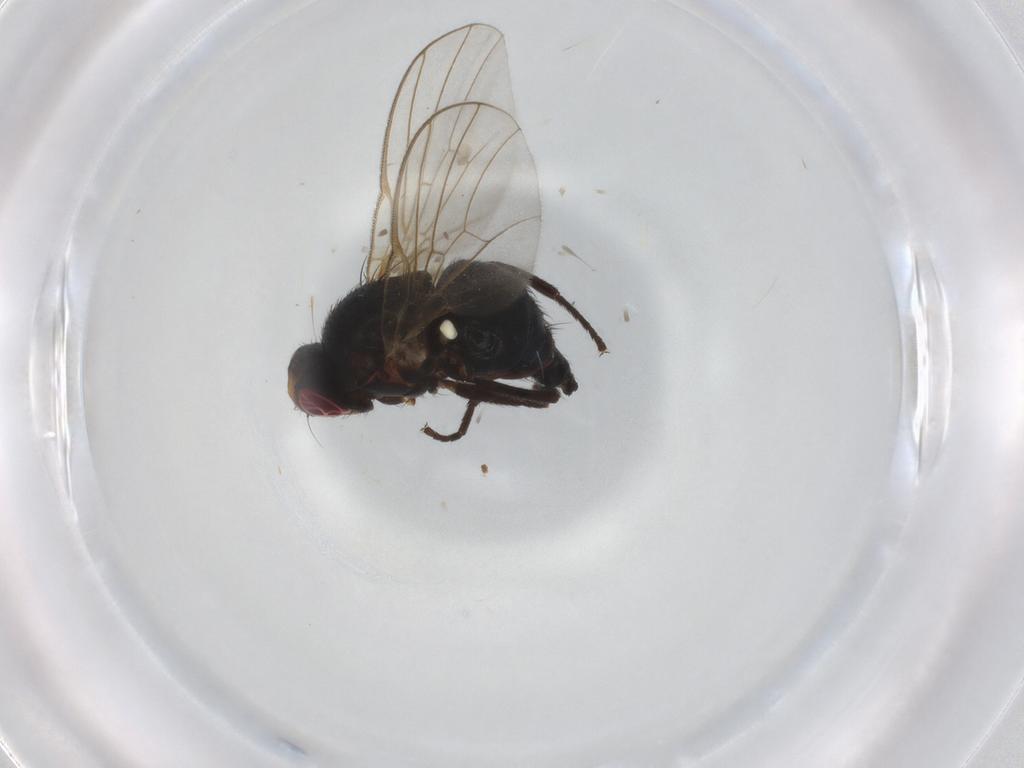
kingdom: Animalia
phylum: Arthropoda
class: Insecta
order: Diptera
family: Cecidomyiidae
